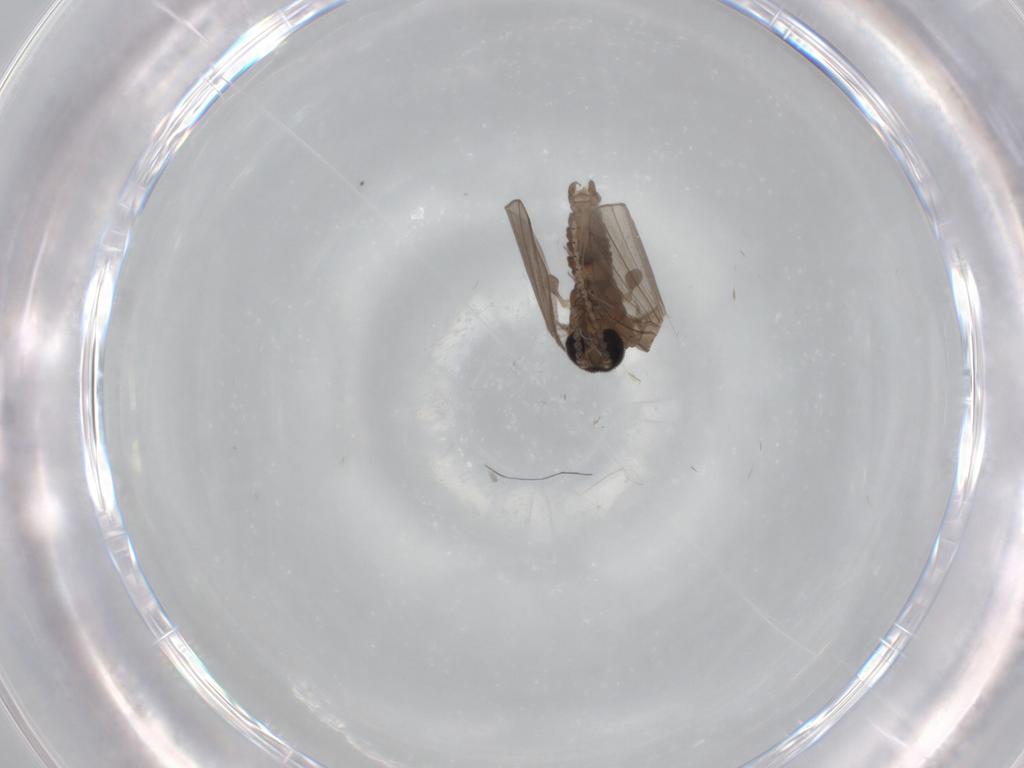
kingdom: Animalia
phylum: Arthropoda
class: Insecta
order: Diptera
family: Psychodidae
